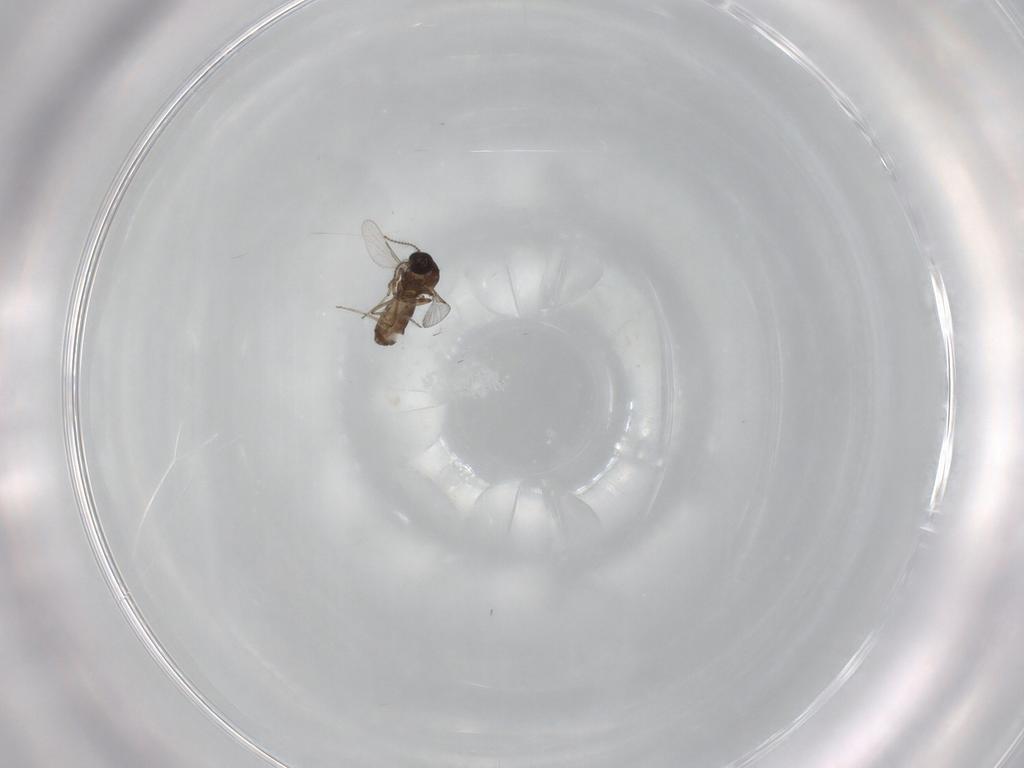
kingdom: Animalia
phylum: Arthropoda
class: Insecta
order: Diptera
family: Ceratopogonidae
